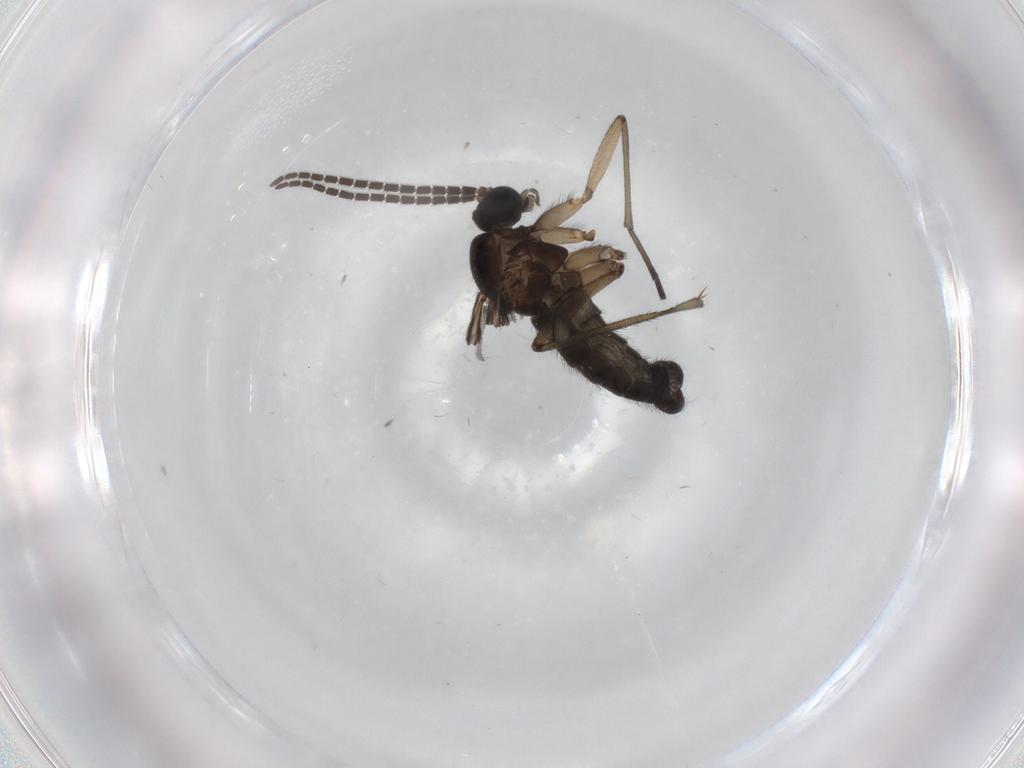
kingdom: Animalia
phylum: Arthropoda
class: Insecta
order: Diptera
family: Sciaridae
